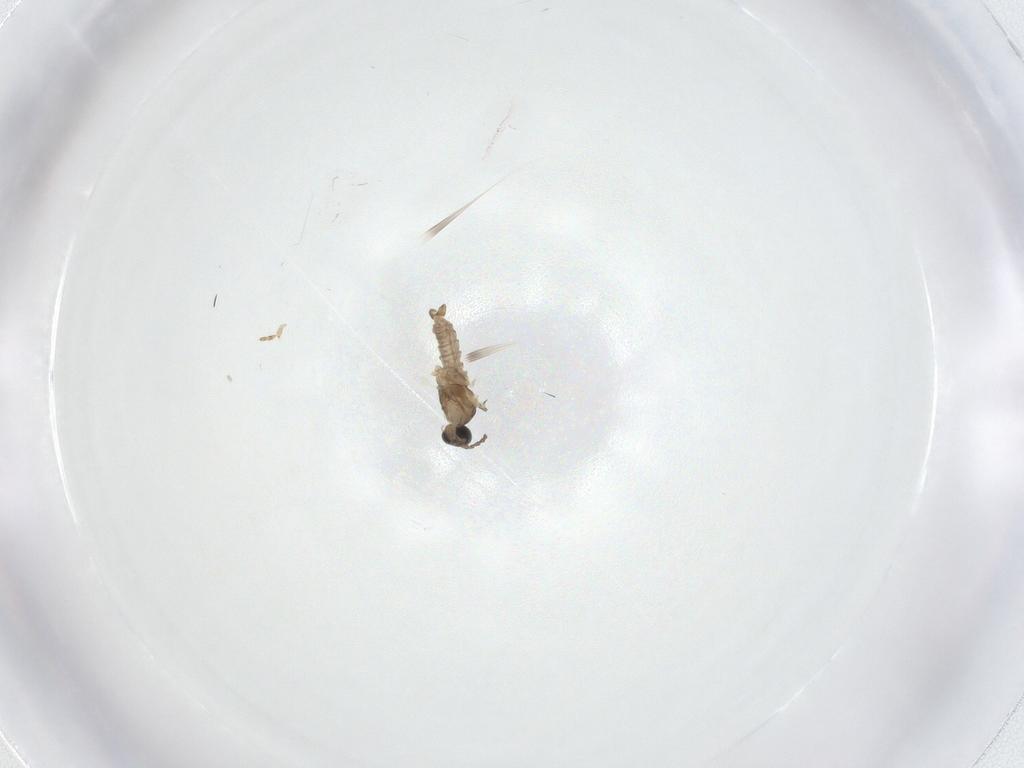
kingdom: Animalia
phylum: Arthropoda
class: Insecta
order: Diptera
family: Cecidomyiidae
